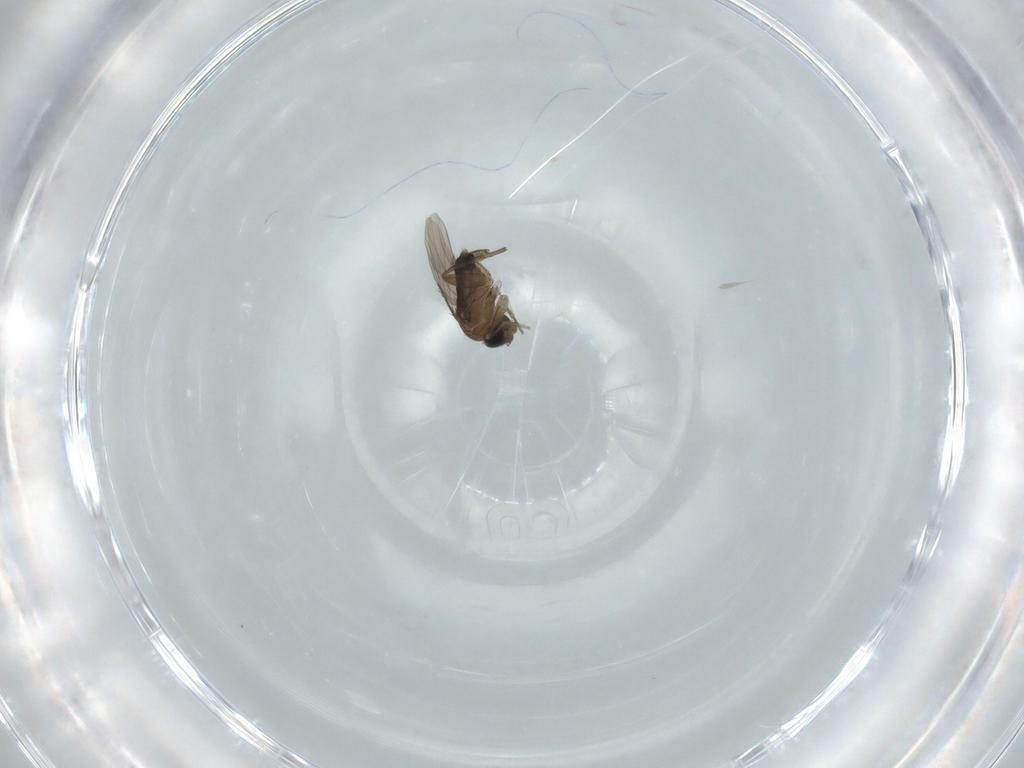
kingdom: Animalia
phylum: Arthropoda
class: Insecta
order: Diptera
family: Phoridae
